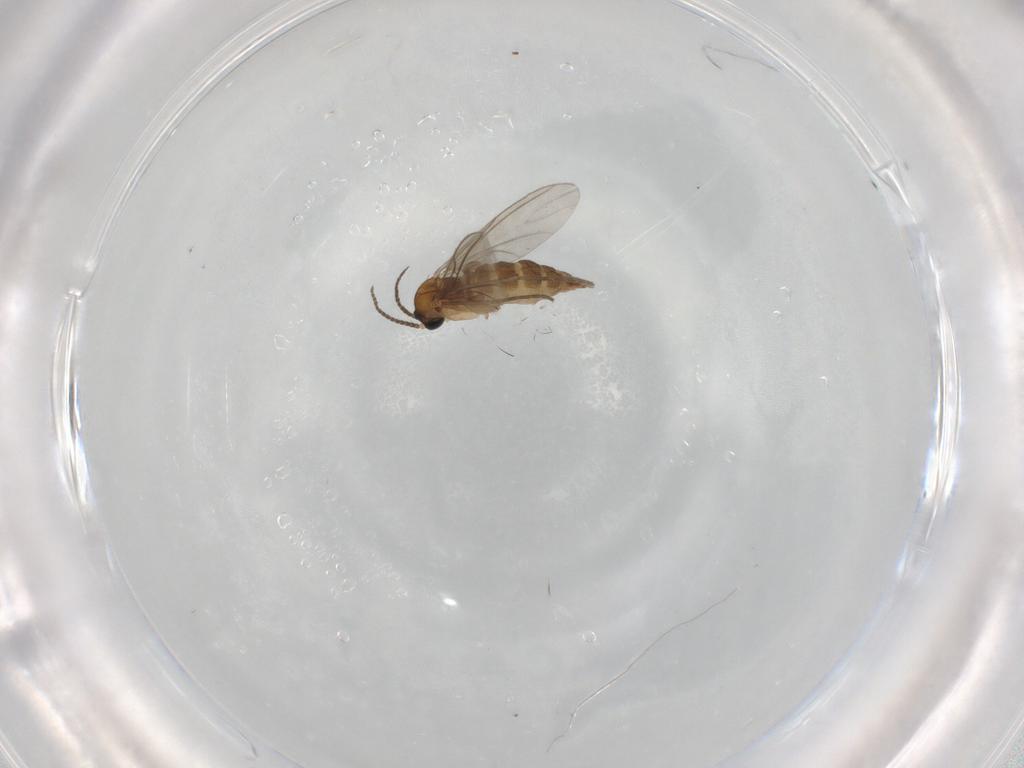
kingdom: Animalia
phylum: Arthropoda
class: Insecta
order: Diptera
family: Sciaridae
